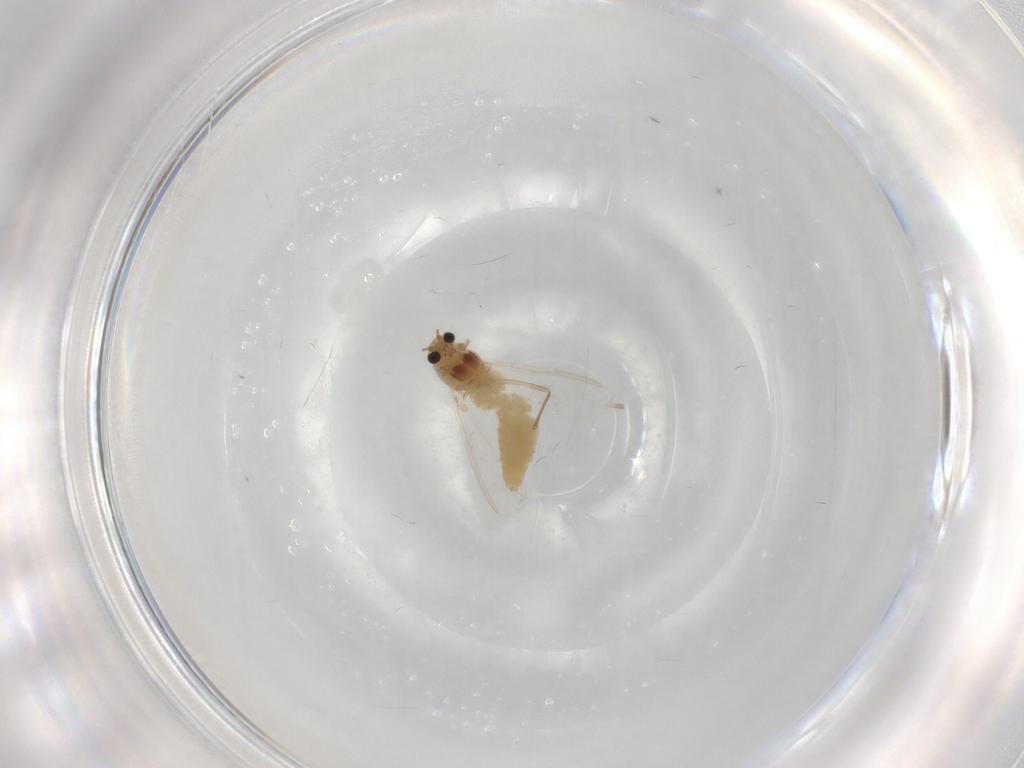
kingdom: Animalia
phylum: Arthropoda
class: Insecta
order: Diptera
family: Chironomidae
